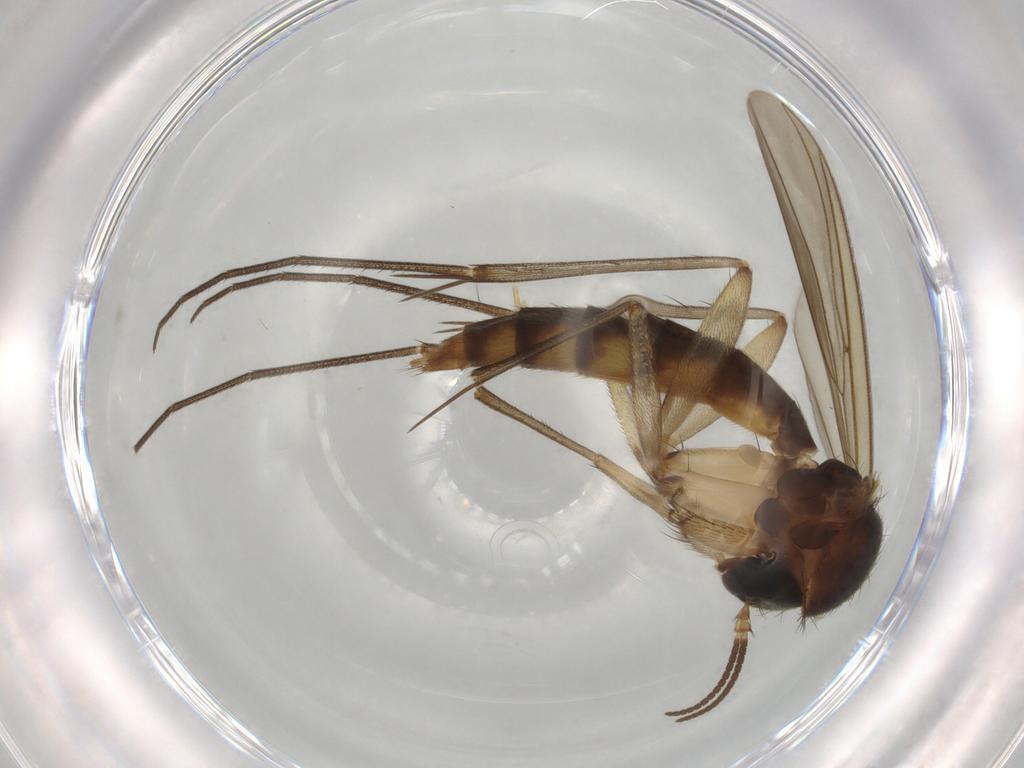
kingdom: Animalia
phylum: Arthropoda
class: Insecta
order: Diptera
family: Mycetophilidae
